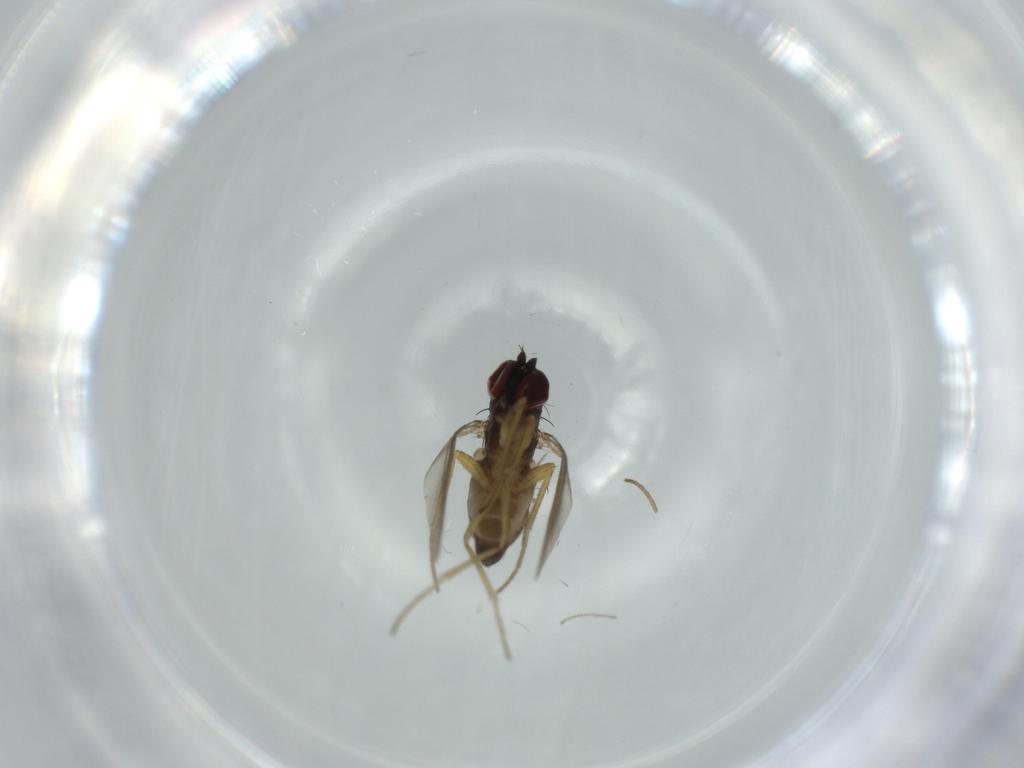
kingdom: Animalia
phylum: Arthropoda
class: Insecta
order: Diptera
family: Dolichopodidae
